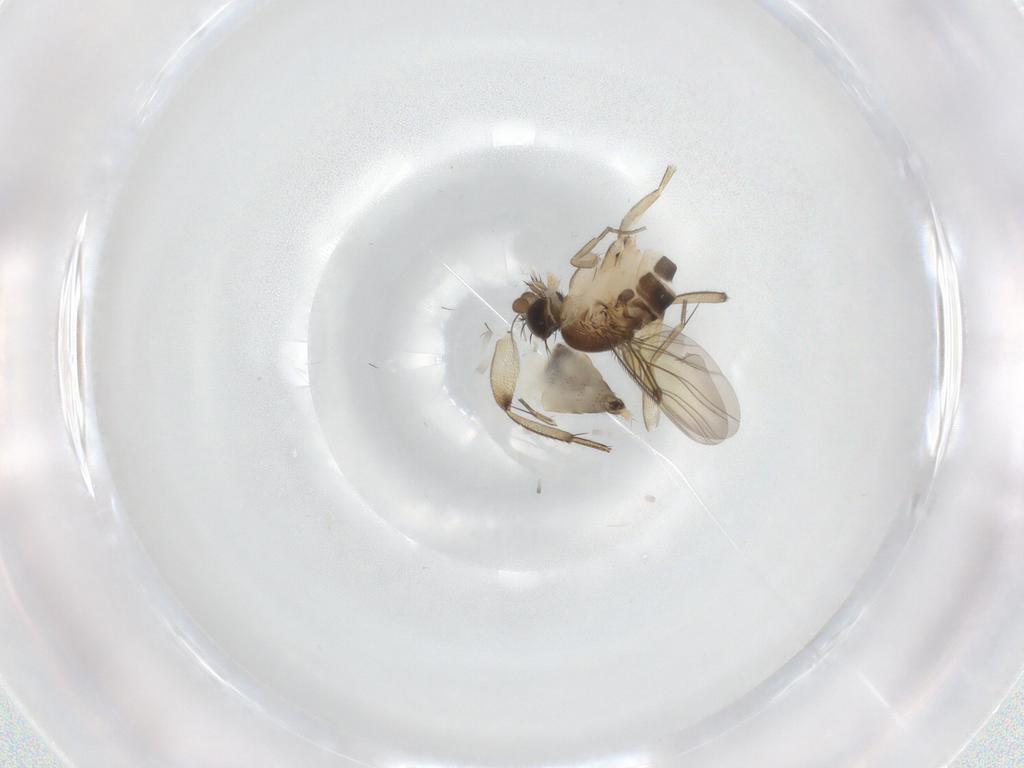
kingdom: Animalia
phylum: Arthropoda
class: Insecta
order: Diptera
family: Phoridae
